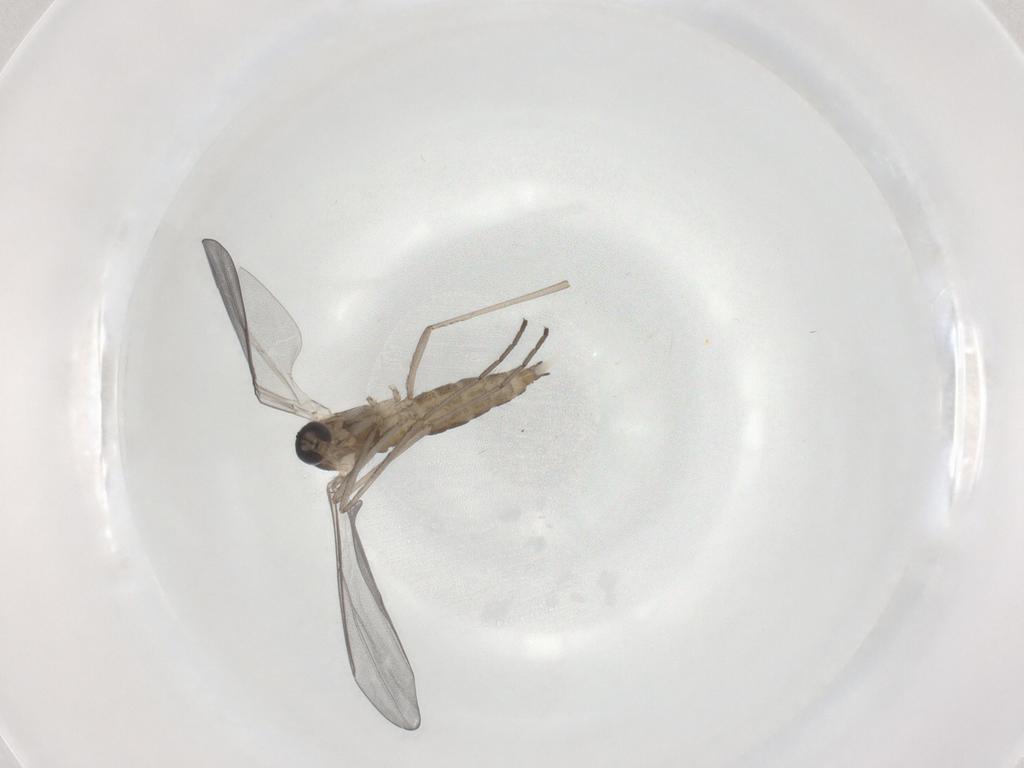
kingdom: Animalia
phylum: Arthropoda
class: Insecta
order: Diptera
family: Cecidomyiidae
